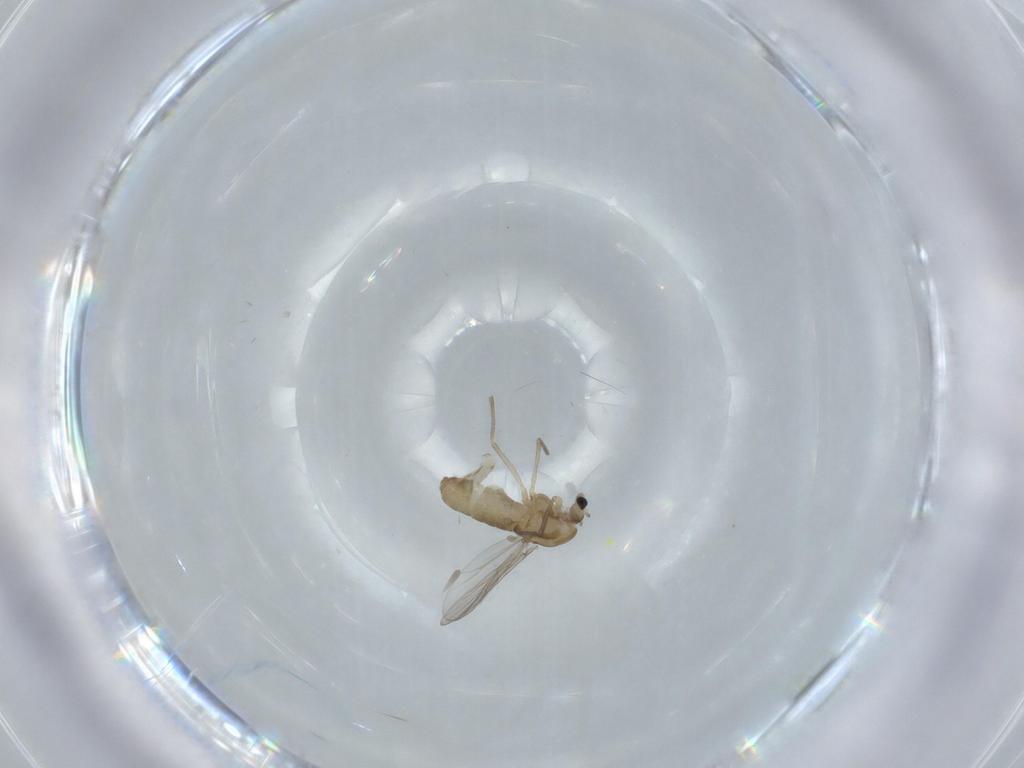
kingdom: Animalia
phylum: Arthropoda
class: Insecta
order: Diptera
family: Chironomidae
